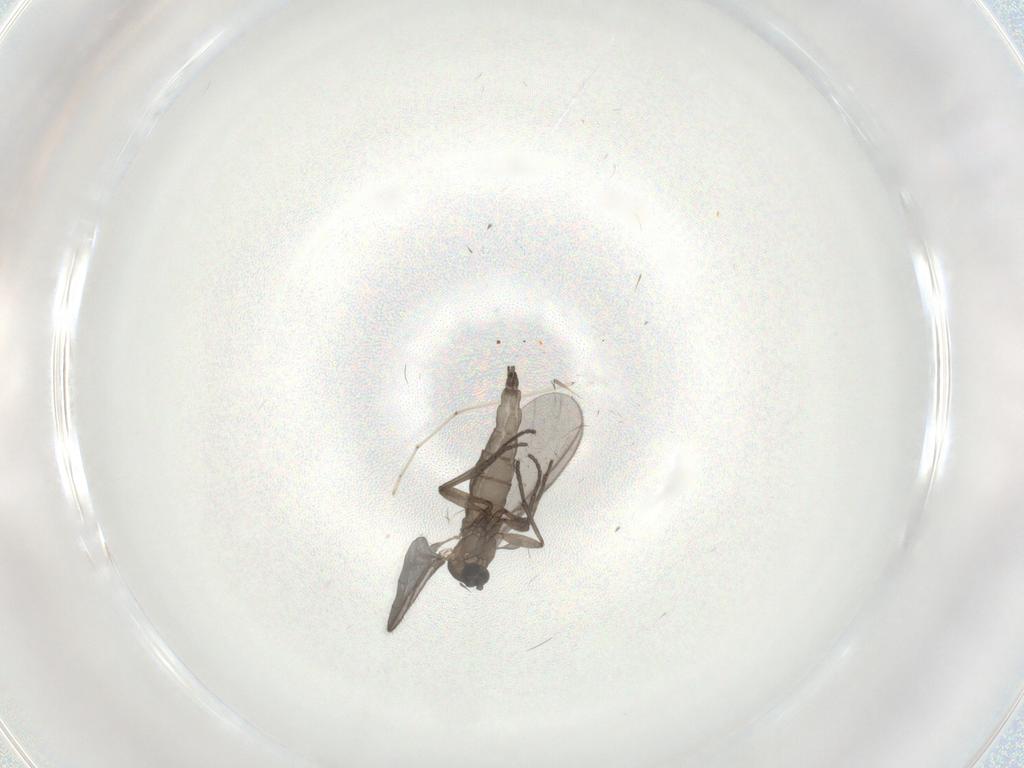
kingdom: Animalia
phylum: Arthropoda
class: Insecta
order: Diptera
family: Sciaridae
